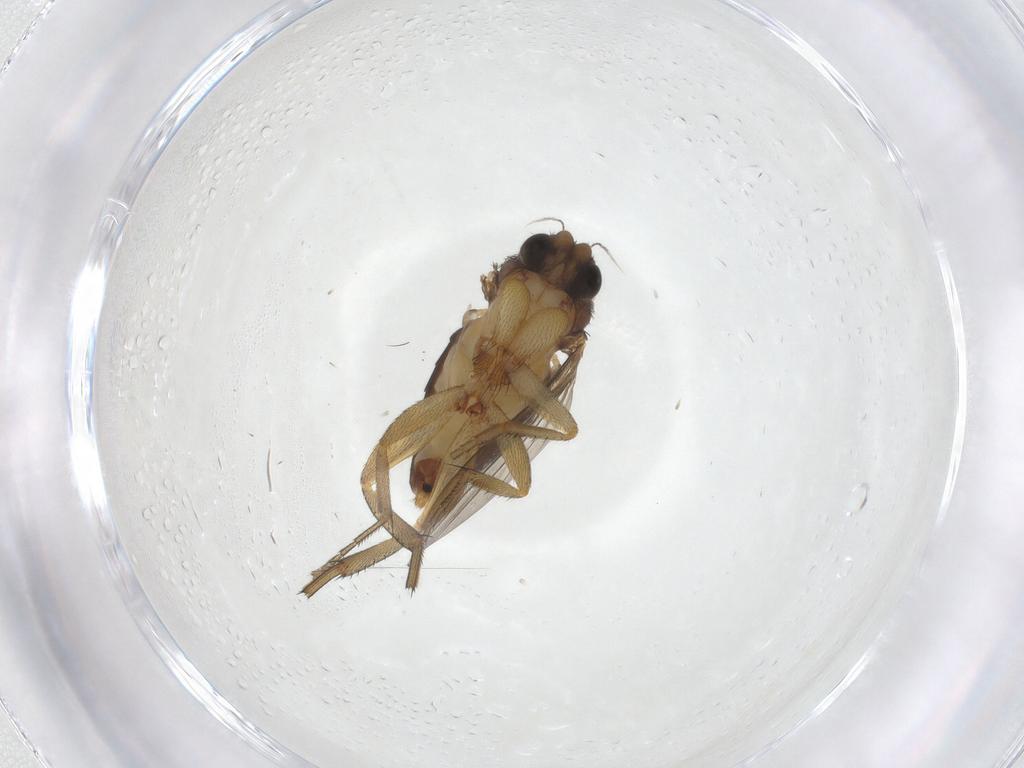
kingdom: Animalia
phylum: Arthropoda
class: Insecta
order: Diptera
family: Phoridae
